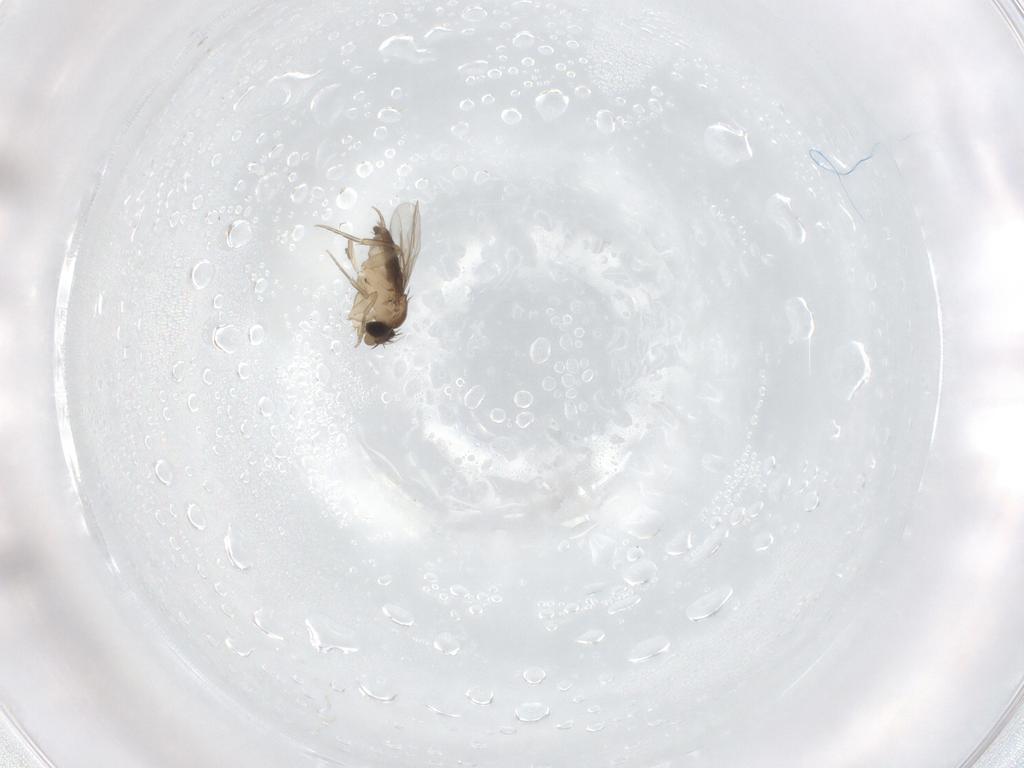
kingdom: Animalia
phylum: Arthropoda
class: Insecta
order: Diptera
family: Phoridae
